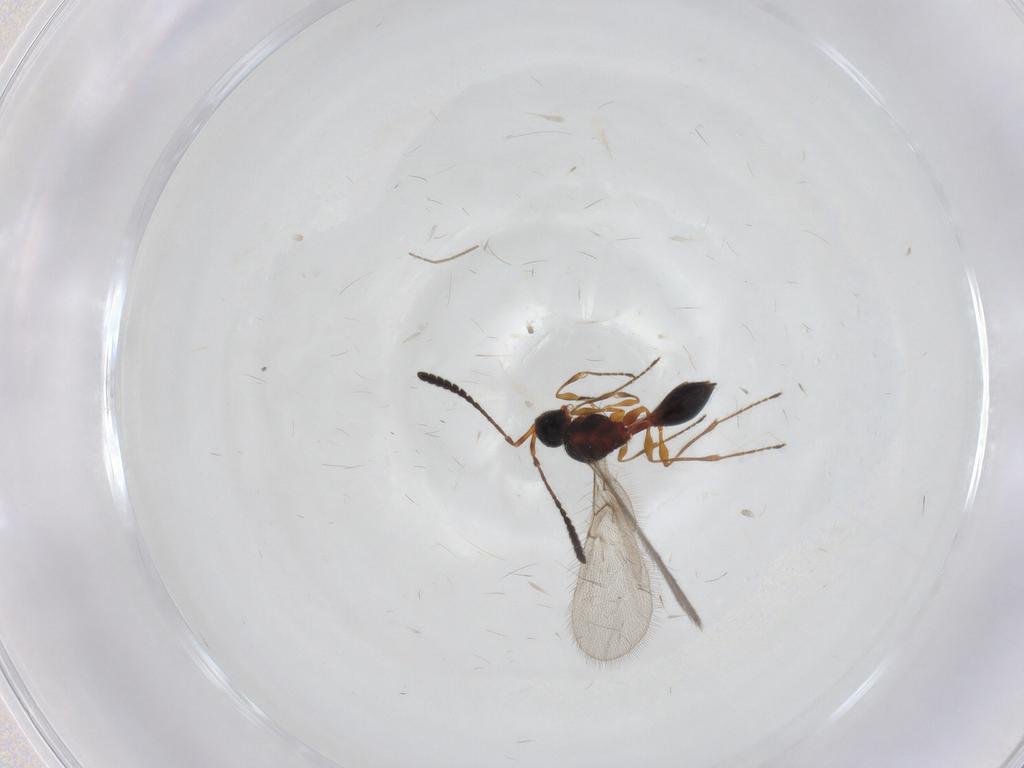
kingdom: Animalia
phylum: Arthropoda
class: Insecta
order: Hymenoptera
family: Diapriidae
